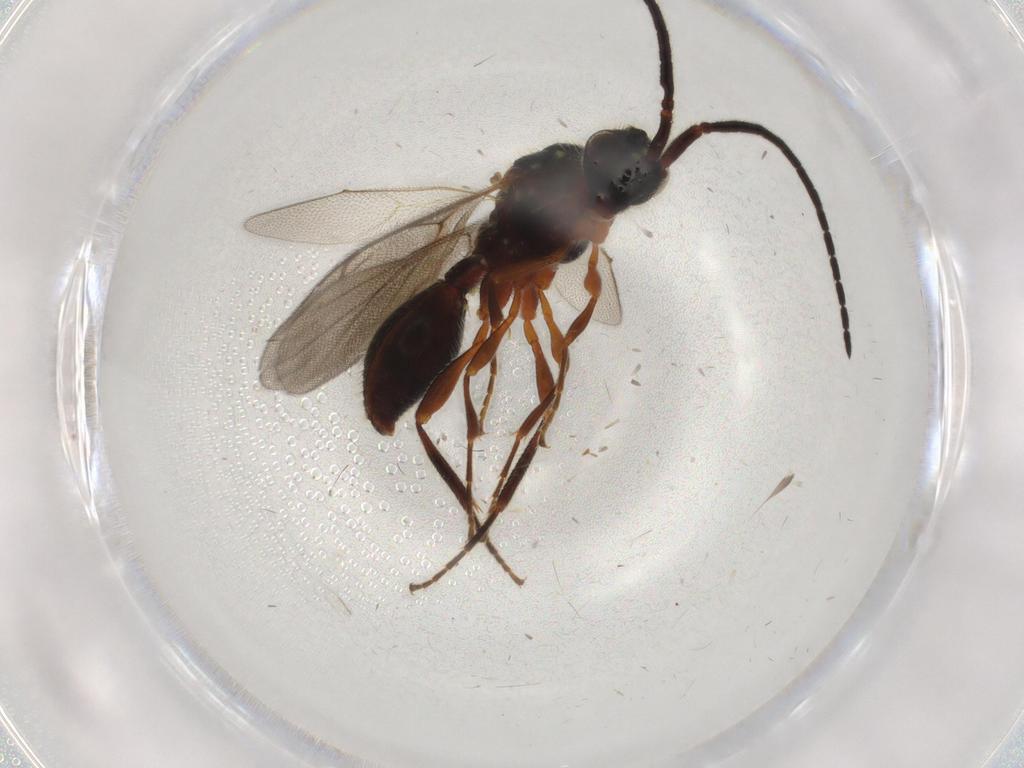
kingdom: Animalia
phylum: Arthropoda
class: Insecta
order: Hymenoptera
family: Diapriidae
